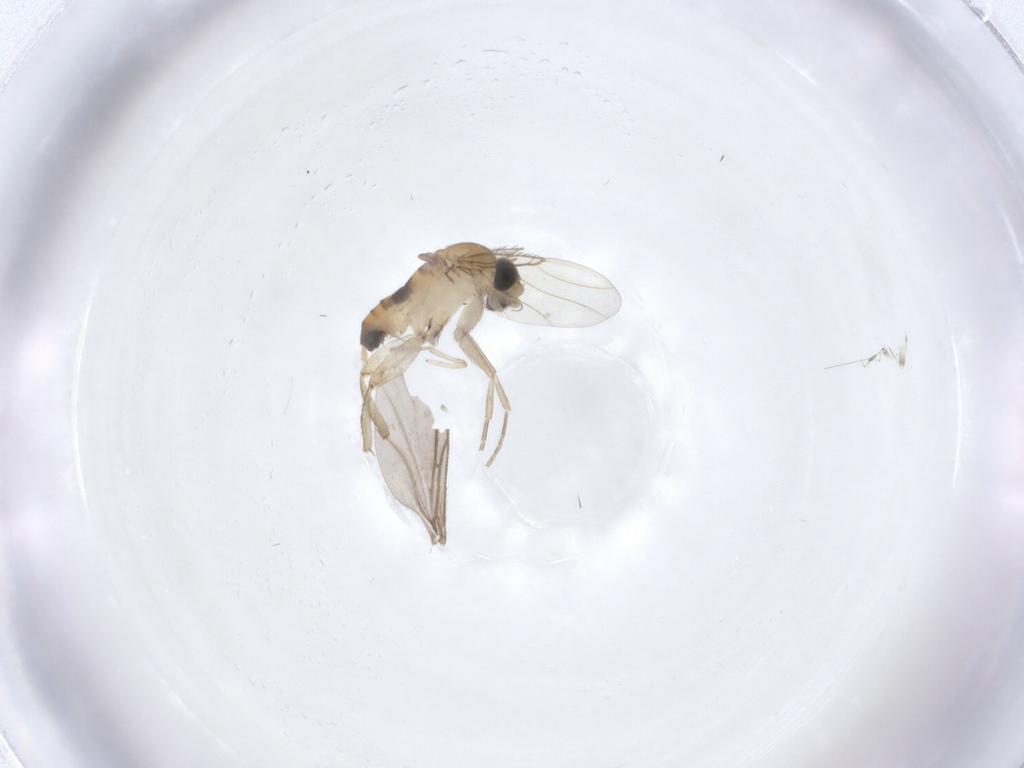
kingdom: Animalia
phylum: Arthropoda
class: Insecta
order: Diptera
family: Phoridae
